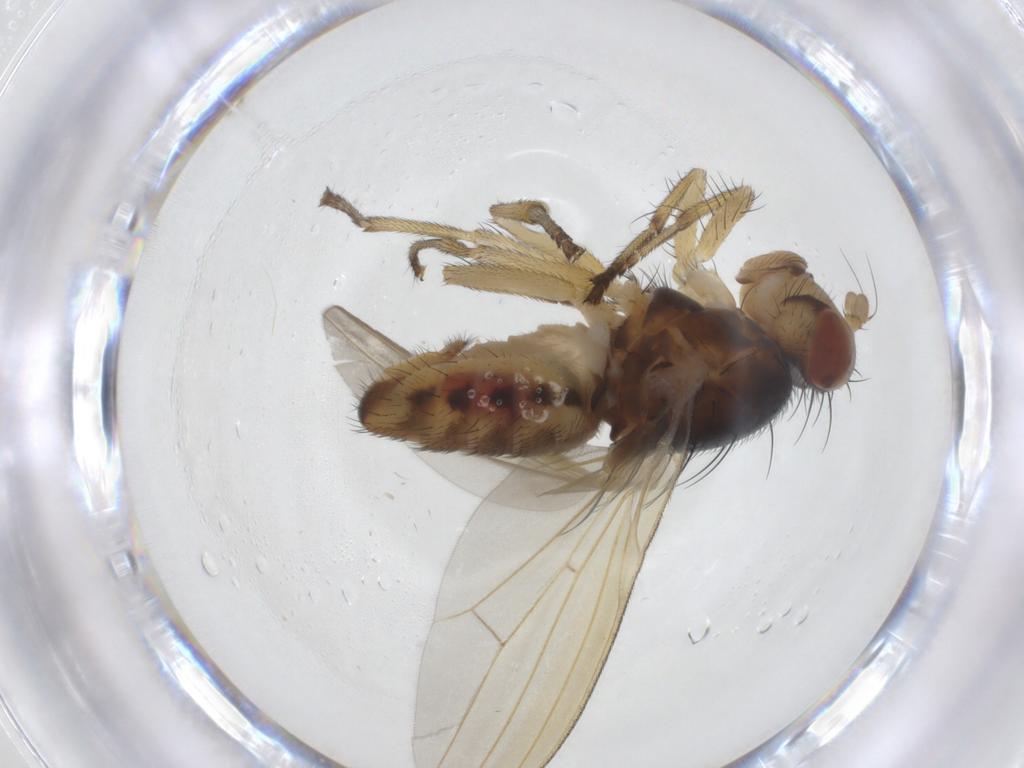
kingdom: Animalia
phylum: Arthropoda
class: Insecta
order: Diptera
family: Lauxaniidae
